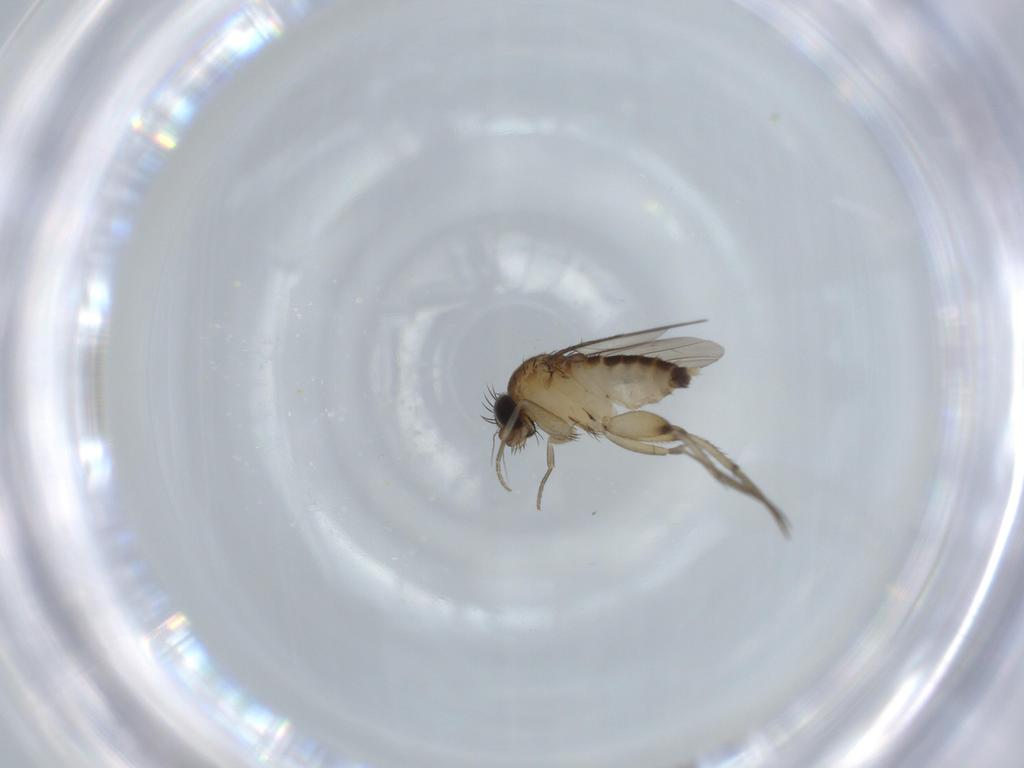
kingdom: Animalia
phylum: Arthropoda
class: Insecta
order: Diptera
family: Phoridae
